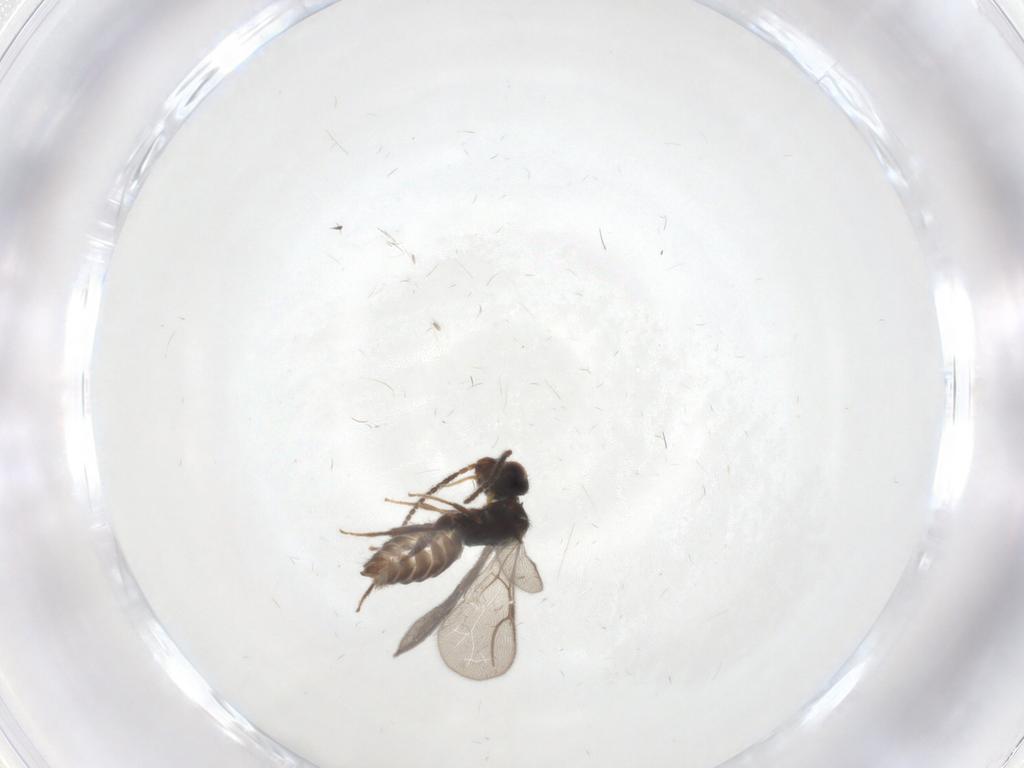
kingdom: Animalia
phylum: Arthropoda
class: Insecta
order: Hymenoptera
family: Bethylidae
